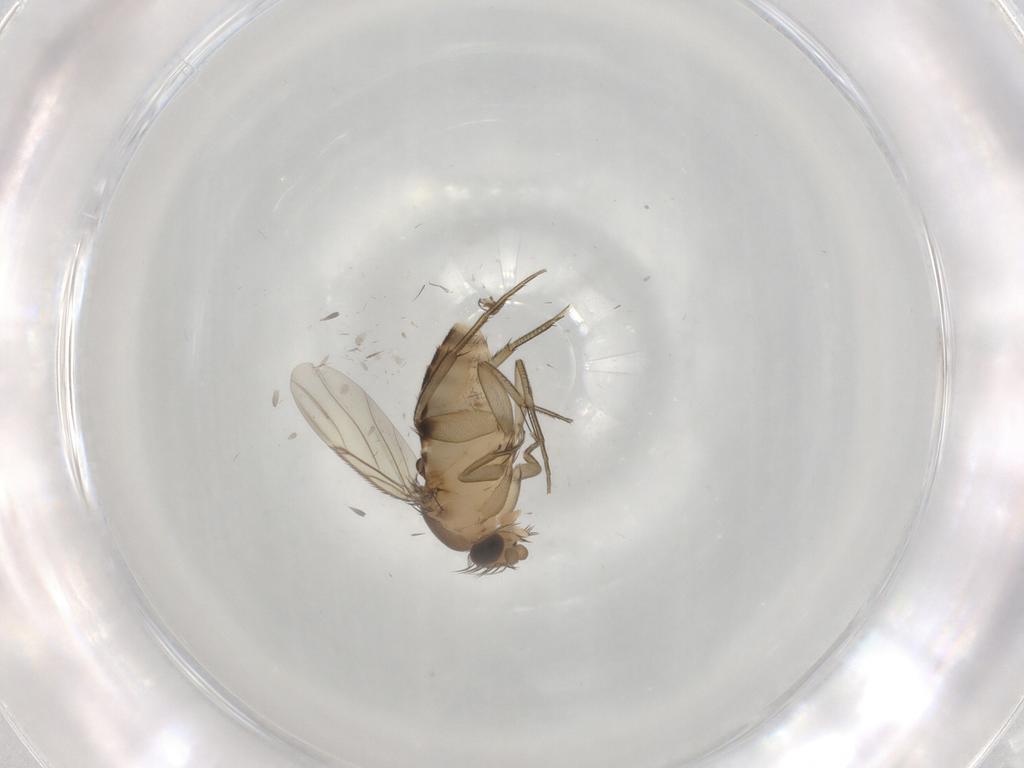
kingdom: Animalia
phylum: Arthropoda
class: Insecta
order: Diptera
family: Phoridae
